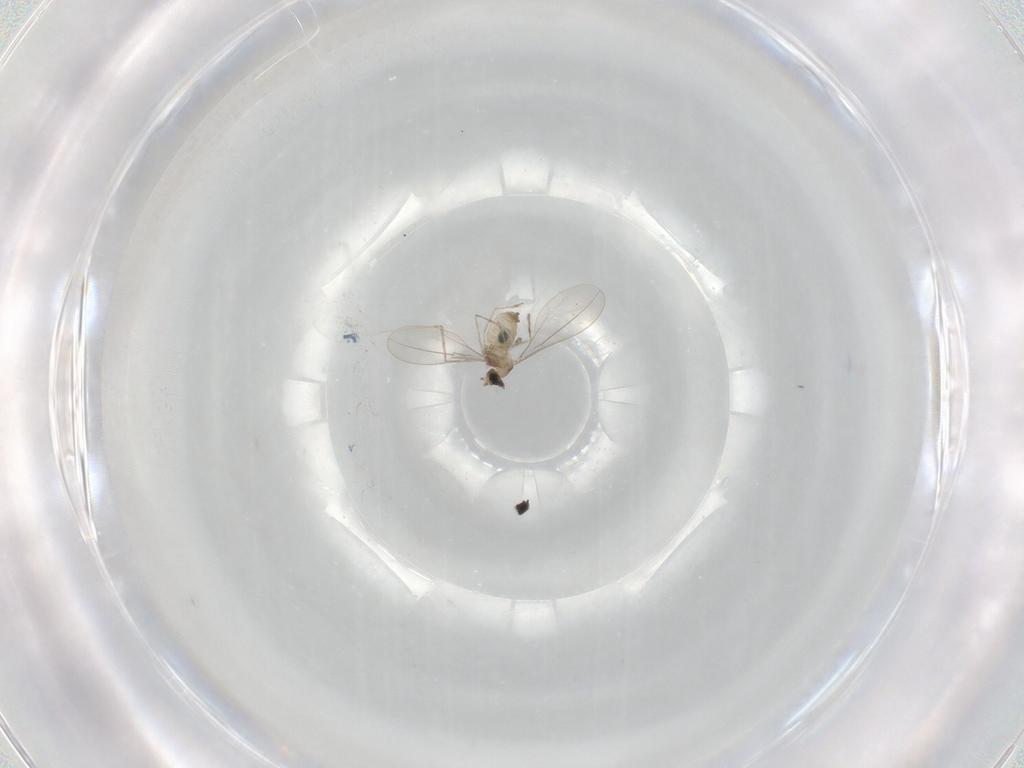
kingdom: Animalia
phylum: Arthropoda
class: Insecta
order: Diptera
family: Cecidomyiidae
